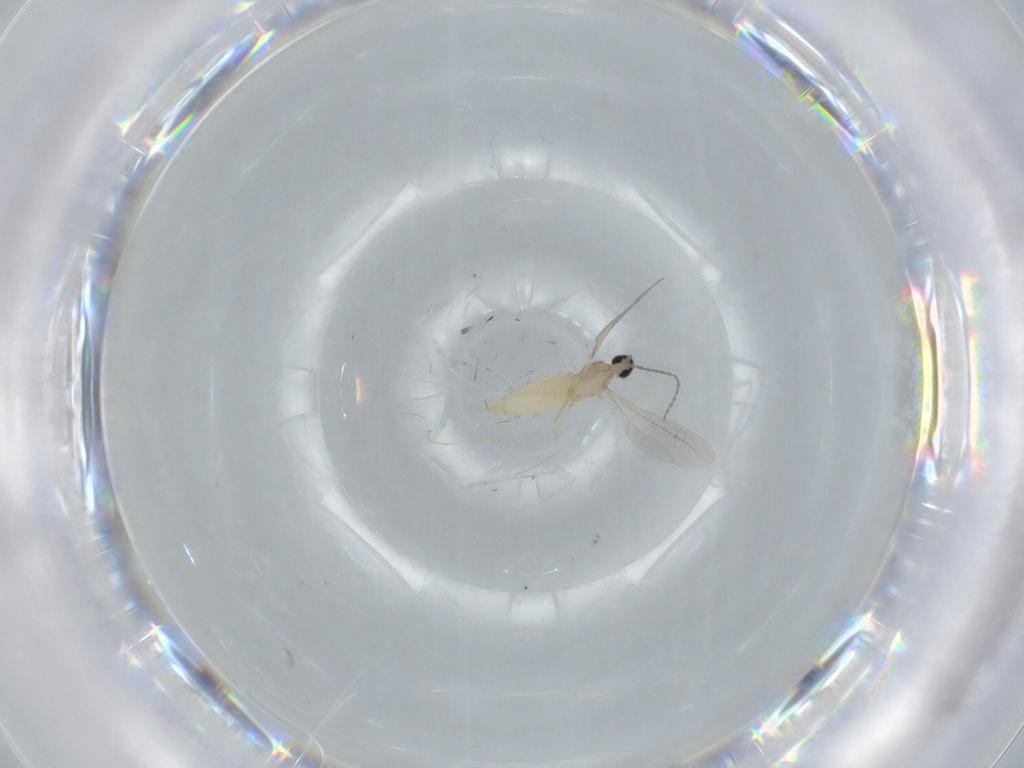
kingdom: Animalia
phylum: Arthropoda
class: Insecta
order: Diptera
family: Cecidomyiidae
